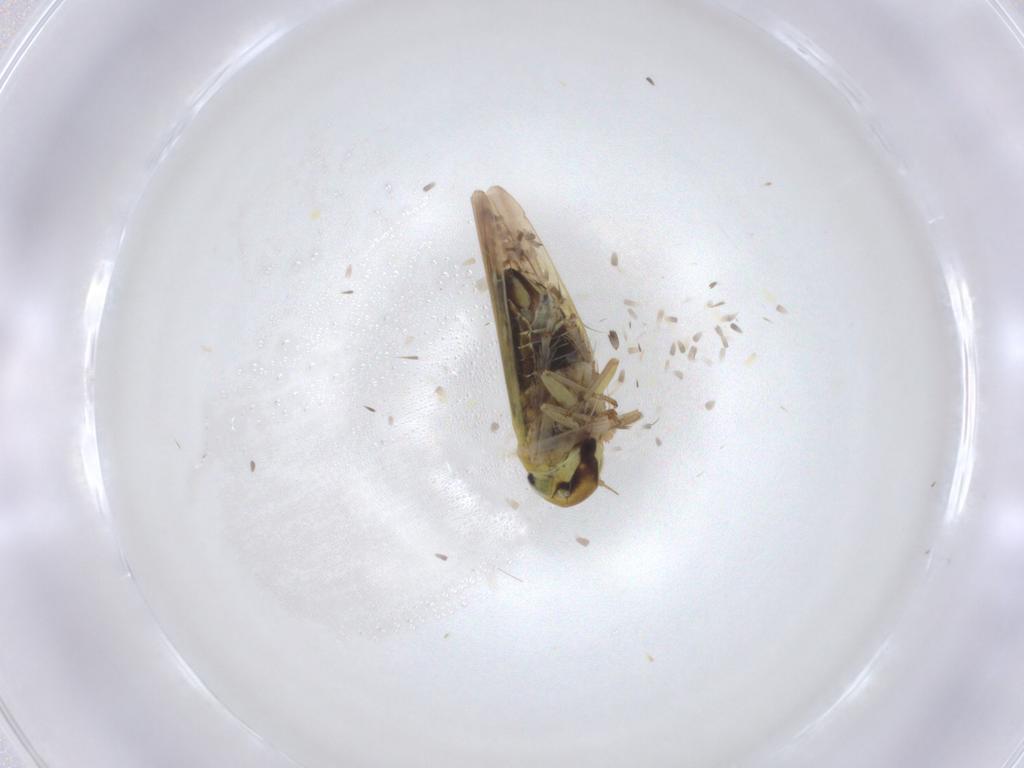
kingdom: Animalia
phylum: Arthropoda
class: Insecta
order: Hemiptera
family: Cicadellidae
